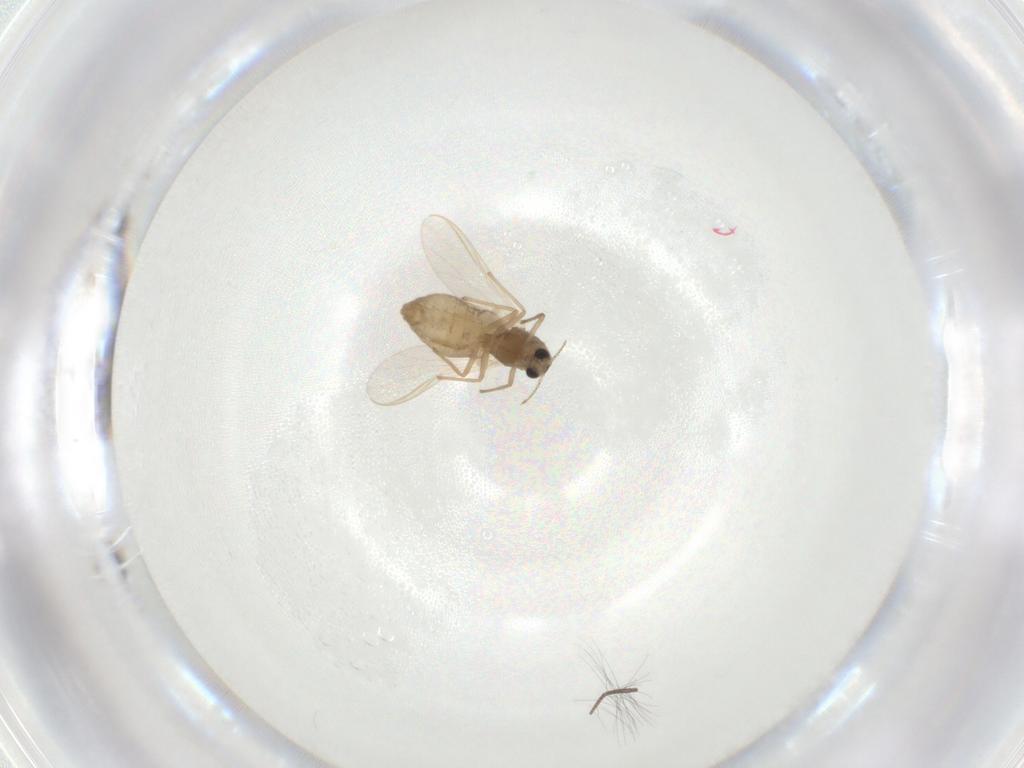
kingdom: Animalia
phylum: Arthropoda
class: Insecta
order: Diptera
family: Chironomidae
